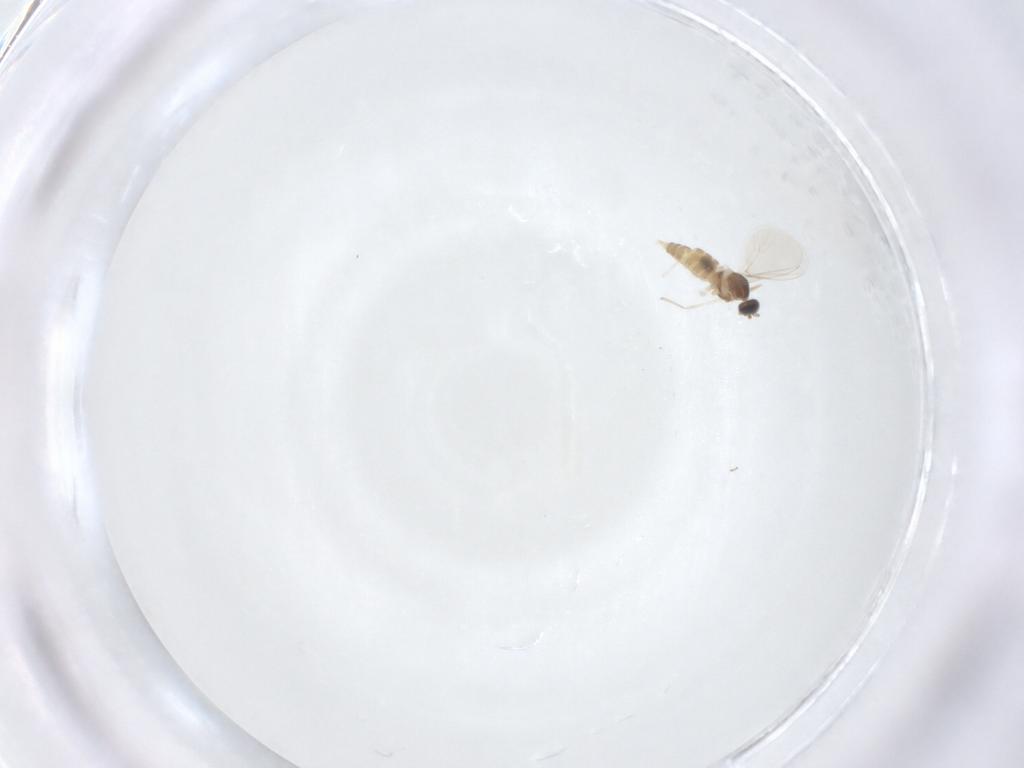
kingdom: Animalia
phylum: Arthropoda
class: Insecta
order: Diptera
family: Cecidomyiidae
